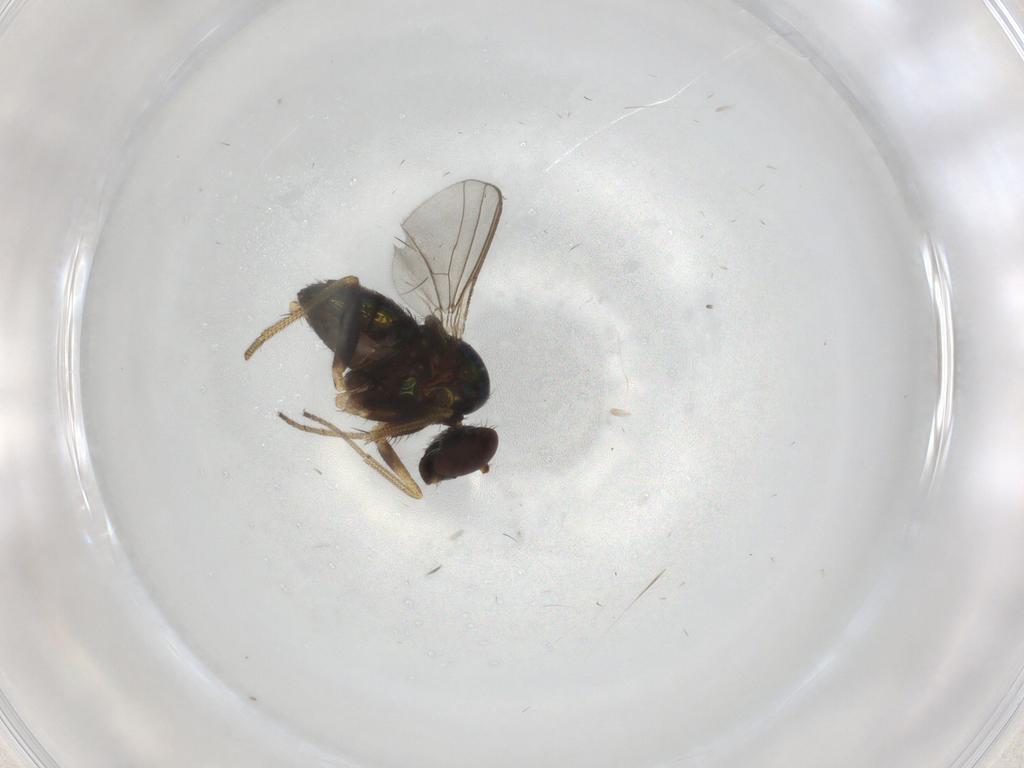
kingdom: Animalia
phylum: Arthropoda
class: Insecta
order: Diptera
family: Dolichopodidae
